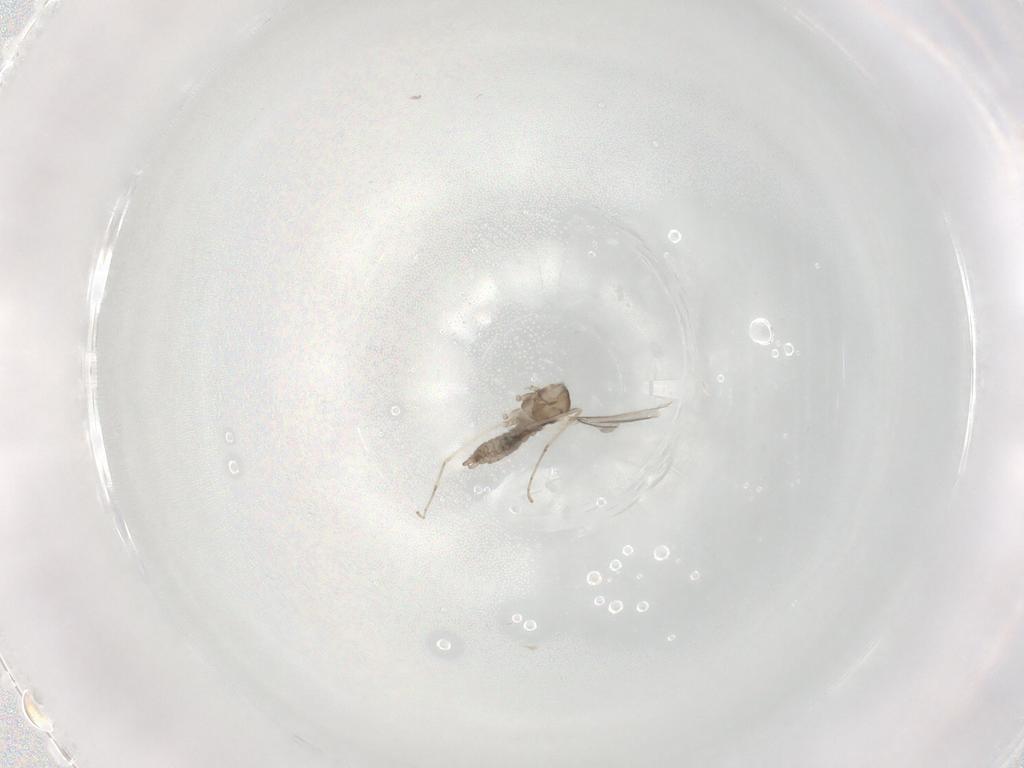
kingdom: Animalia
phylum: Arthropoda
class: Insecta
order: Diptera
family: Cecidomyiidae
